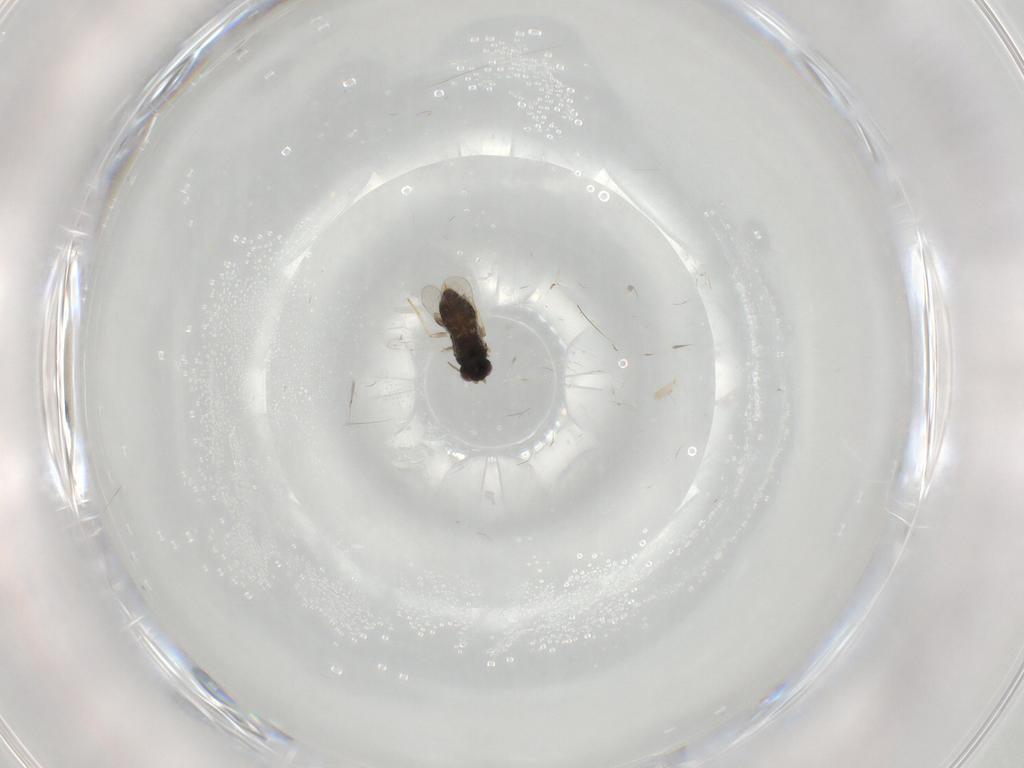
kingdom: Animalia
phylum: Arthropoda
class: Insecta
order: Hymenoptera
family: Aphelinidae
